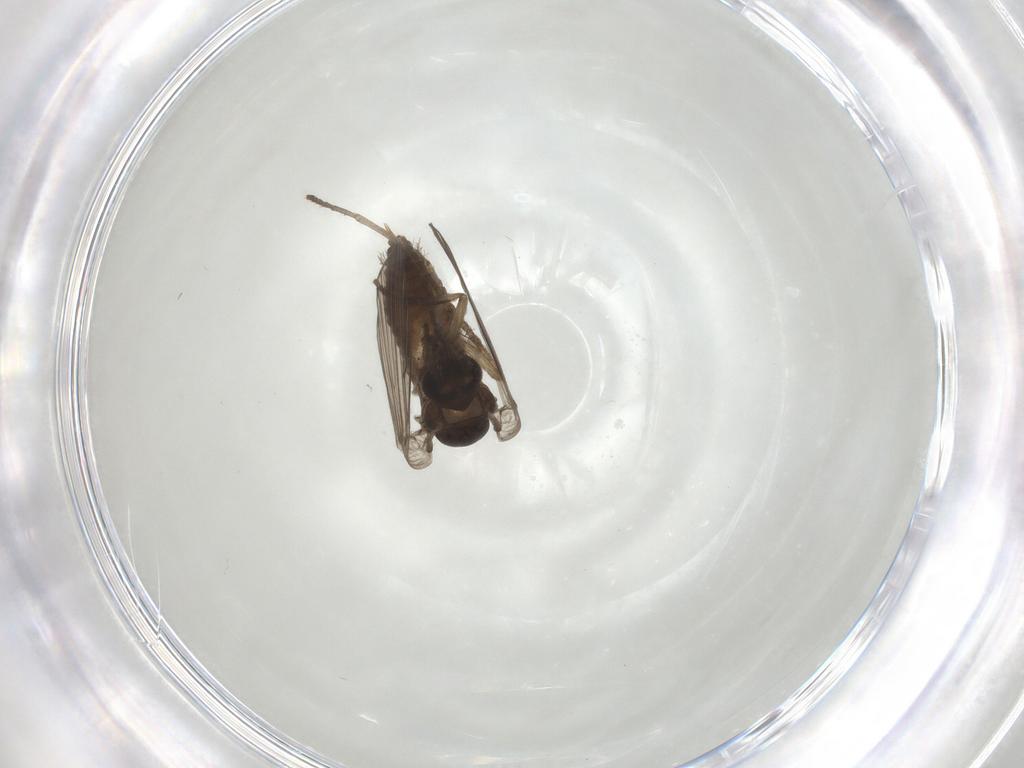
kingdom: Animalia
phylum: Arthropoda
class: Insecta
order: Diptera
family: Psychodidae
